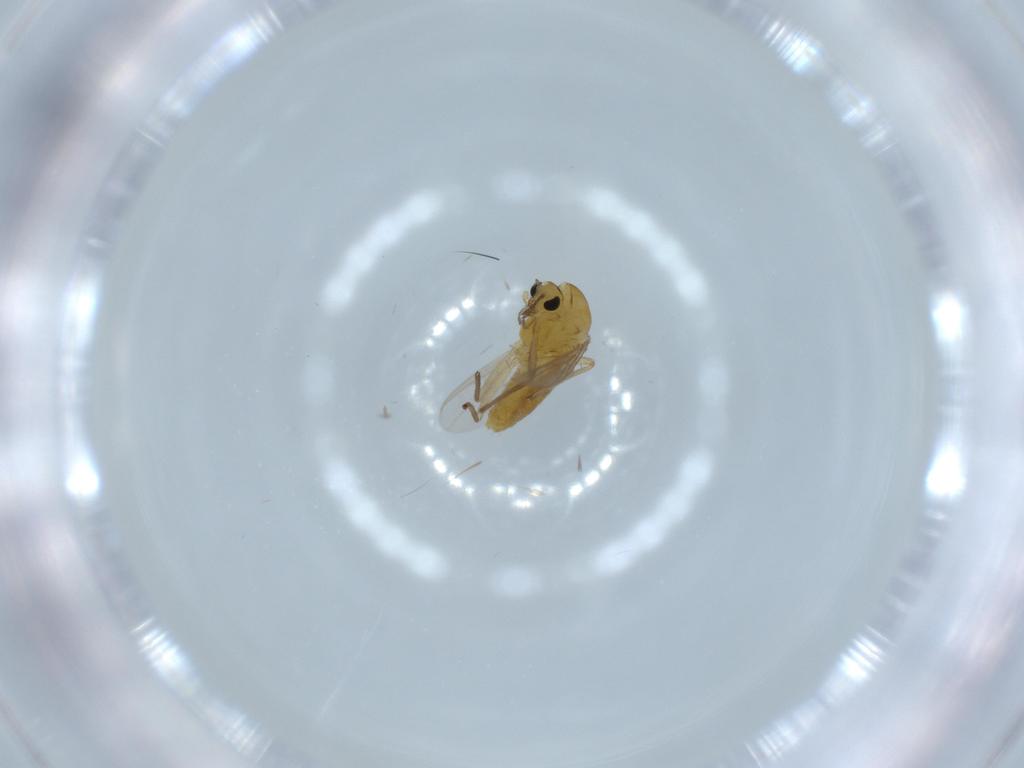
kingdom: Animalia
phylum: Arthropoda
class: Insecta
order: Diptera
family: Chironomidae
